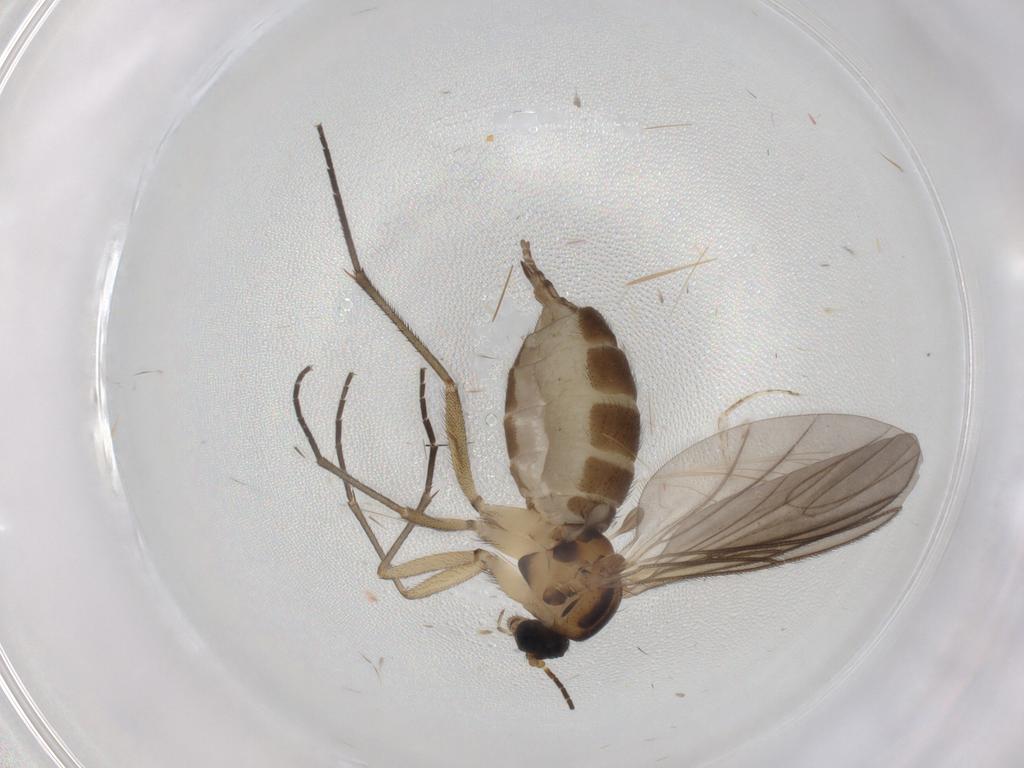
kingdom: Animalia
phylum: Arthropoda
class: Insecta
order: Diptera
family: Sciaridae
